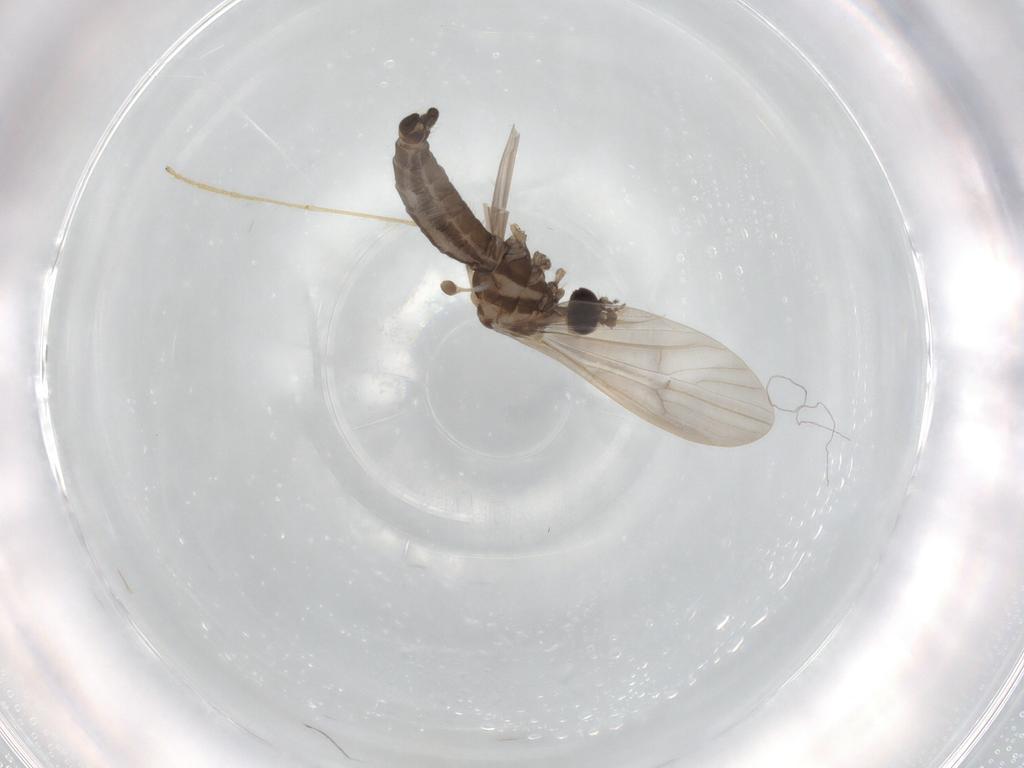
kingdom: Animalia
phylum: Arthropoda
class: Insecta
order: Diptera
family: Limoniidae
